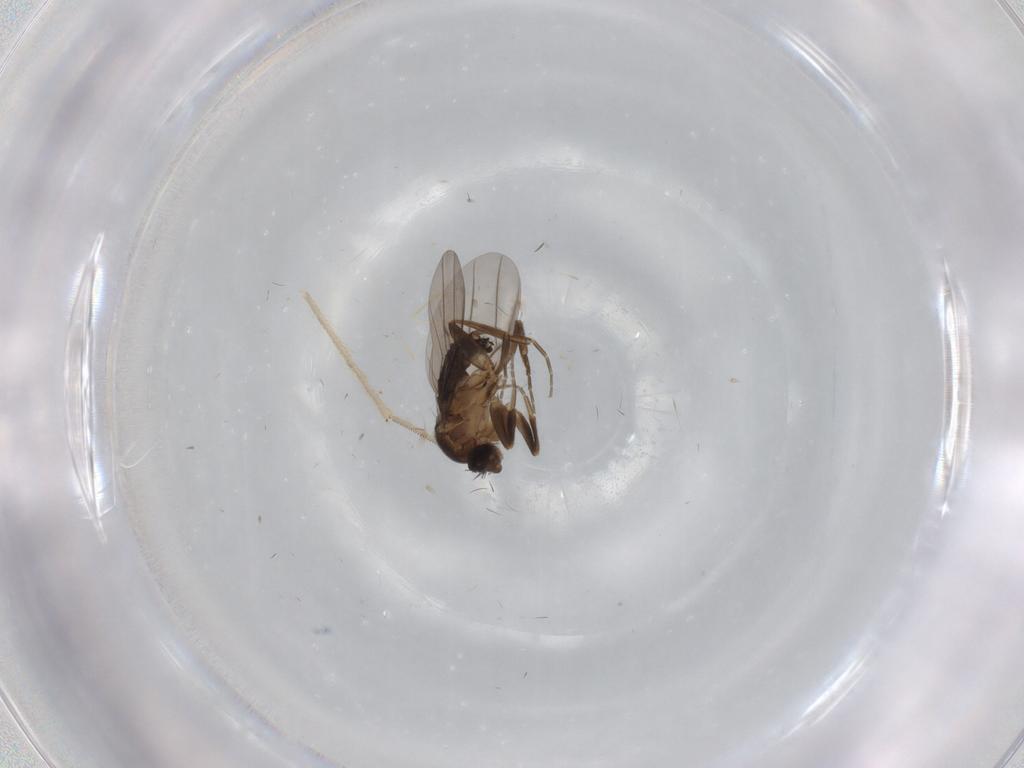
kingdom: Animalia
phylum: Arthropoda
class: Insecta
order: Diptera
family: Cecidomyiidae
